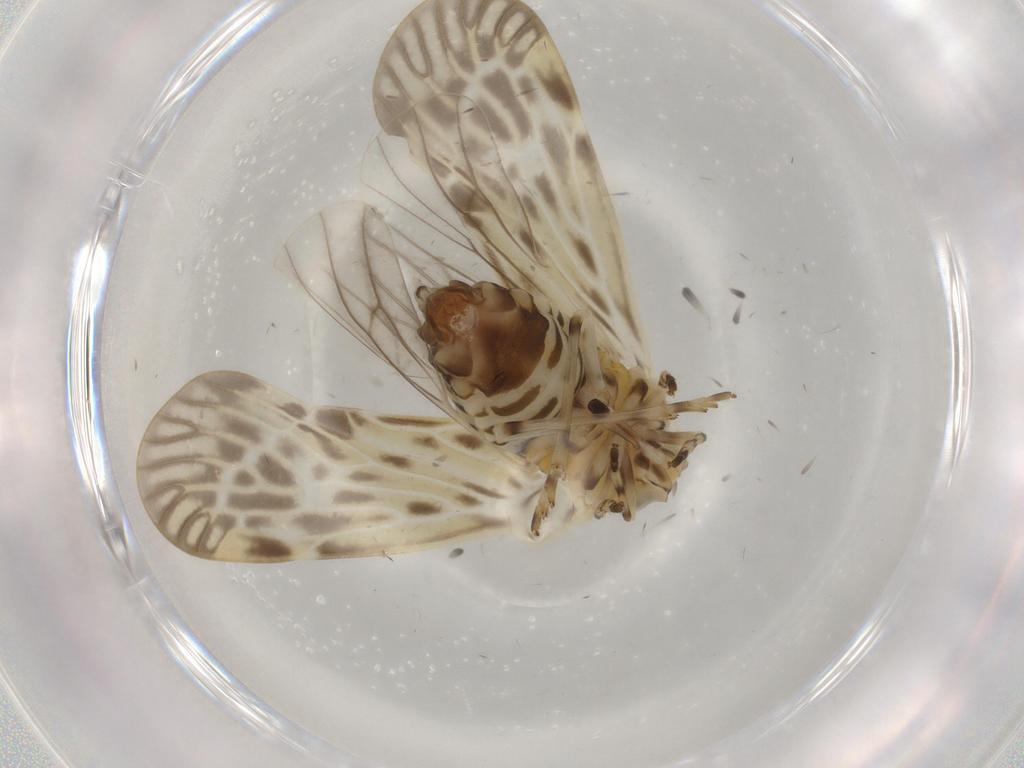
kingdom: Animalia
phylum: Arthropoda
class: Insecta
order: Hemiptera
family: Derbidae
